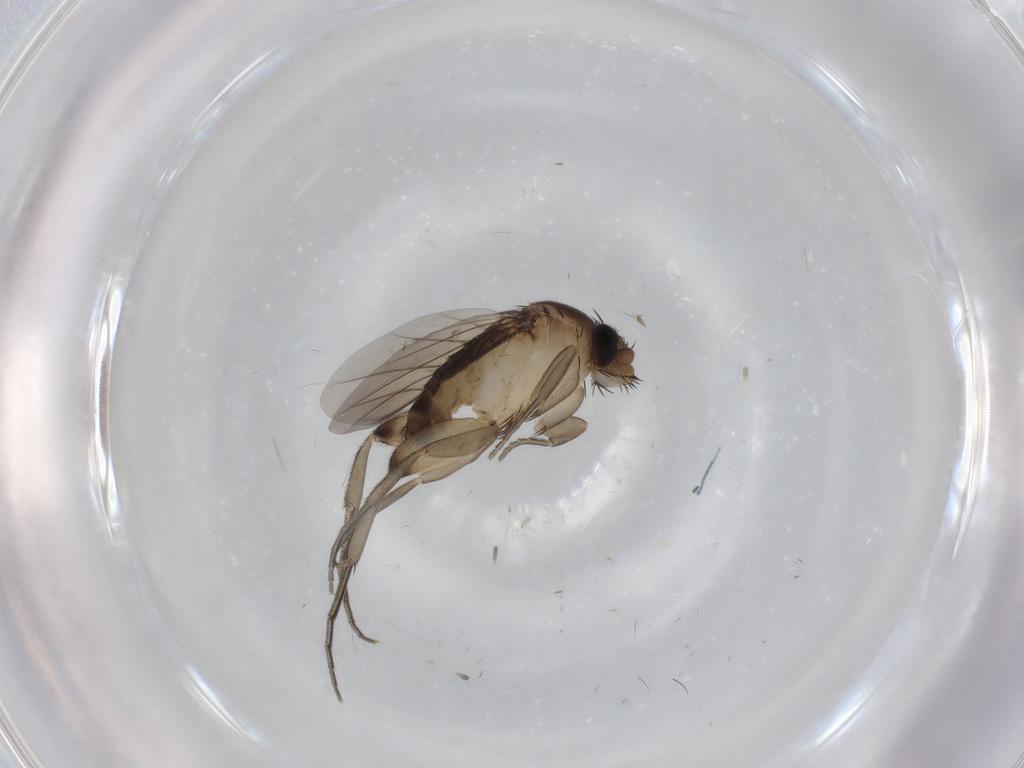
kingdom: Animalia
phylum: Arthropoda
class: Insecta
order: Diptera
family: Phoridae
